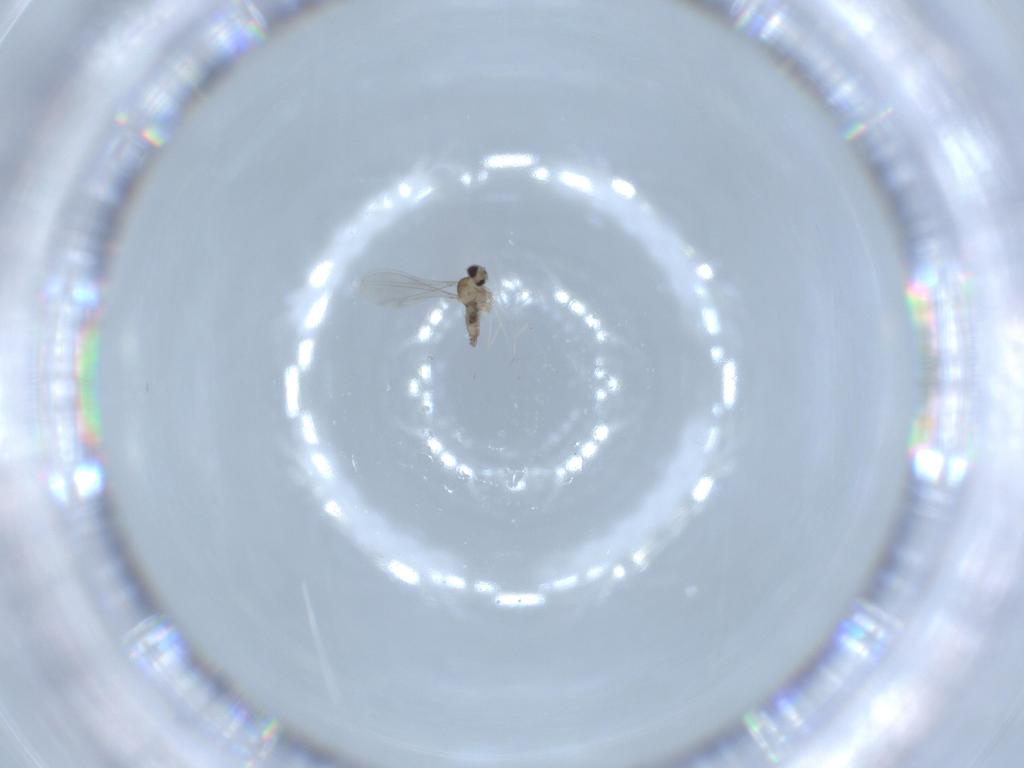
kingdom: Animalia
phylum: Arthropoda
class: Insecta
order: Diptera
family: Cecidomyiidae
